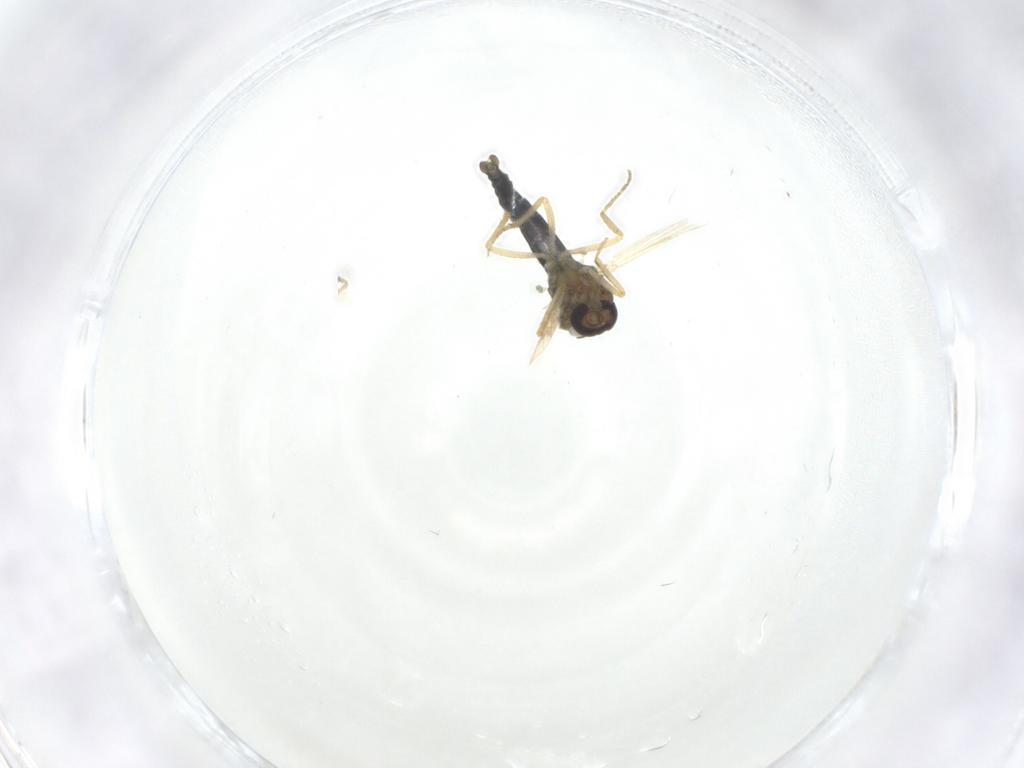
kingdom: Animalia
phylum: Arthropoda
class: Insecta
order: Diptera
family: Ceratopogonidae
